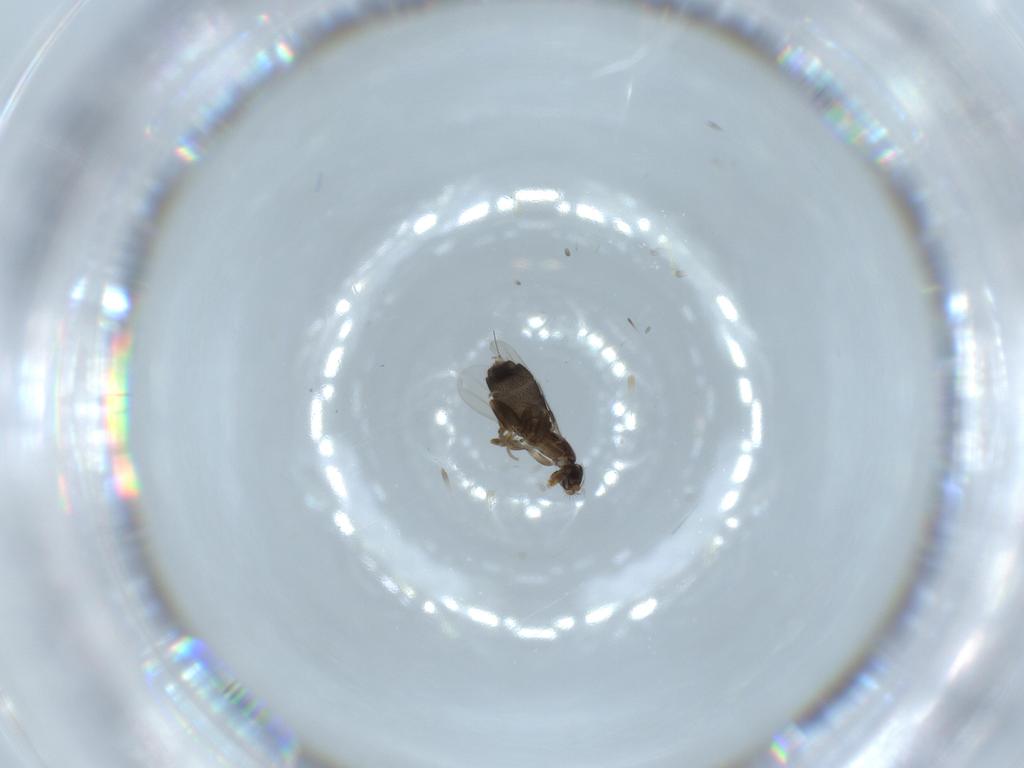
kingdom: Animalia
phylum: Arthropoda
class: Insecta
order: Diptera
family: Phoridae
